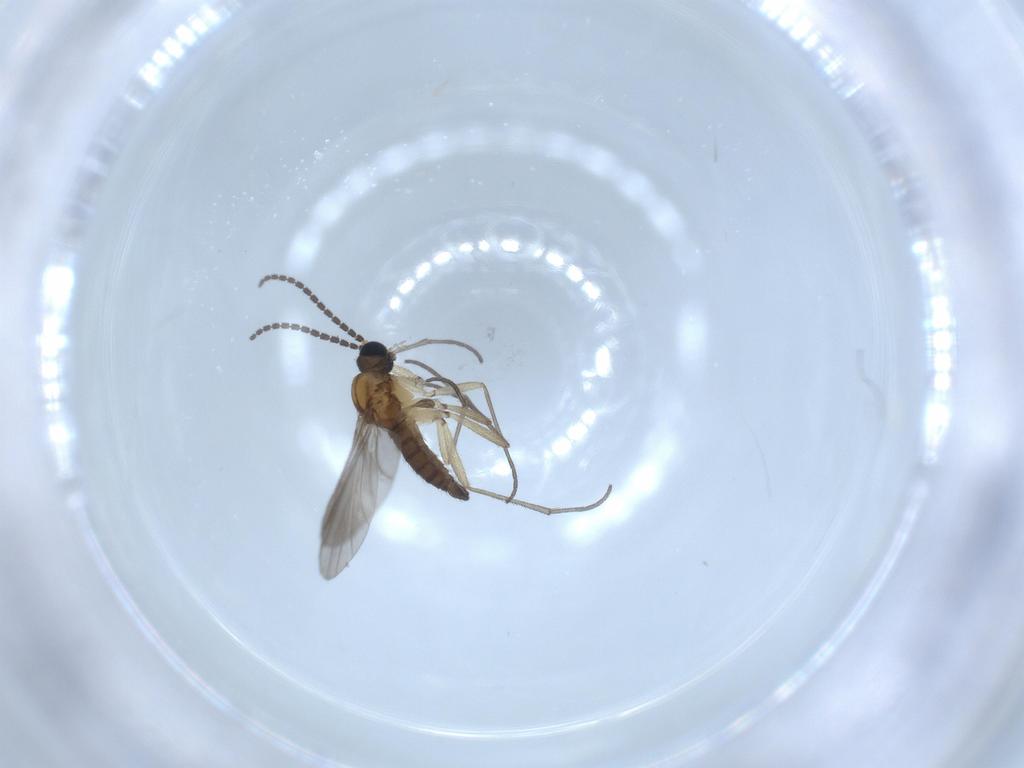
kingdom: Animalia
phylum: Arthropoda
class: Insecta
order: Diptera
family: Sciaridae
